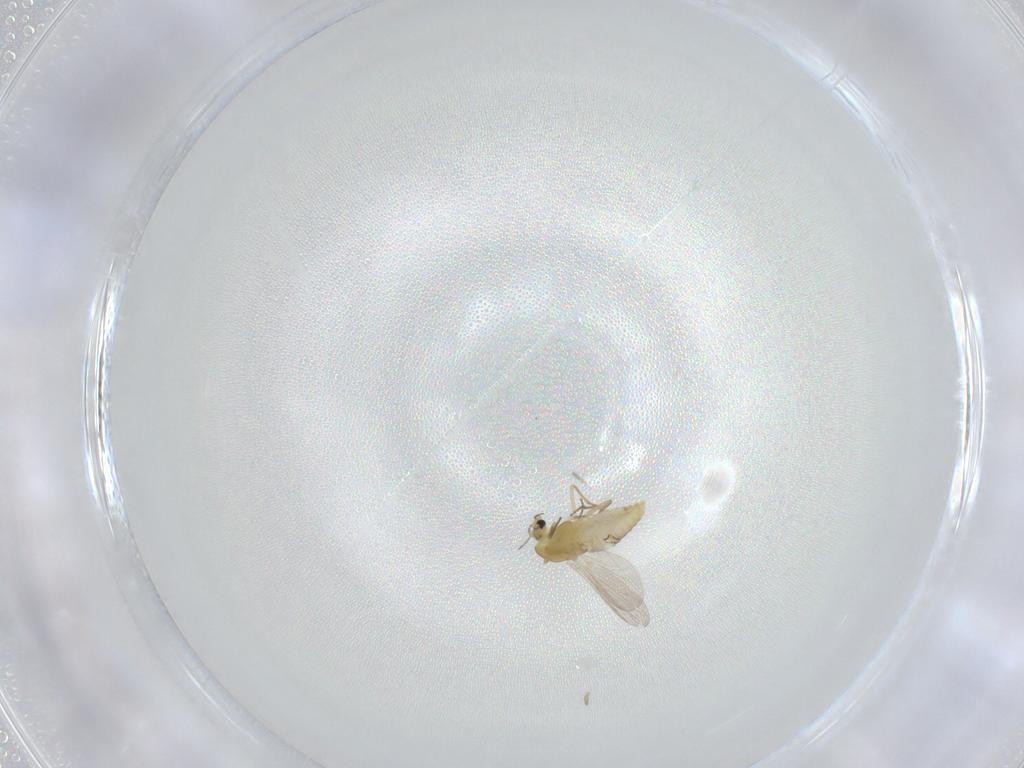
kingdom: Animalia
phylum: Arthropoda
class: Insecta
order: Diptera
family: Chironomidae
